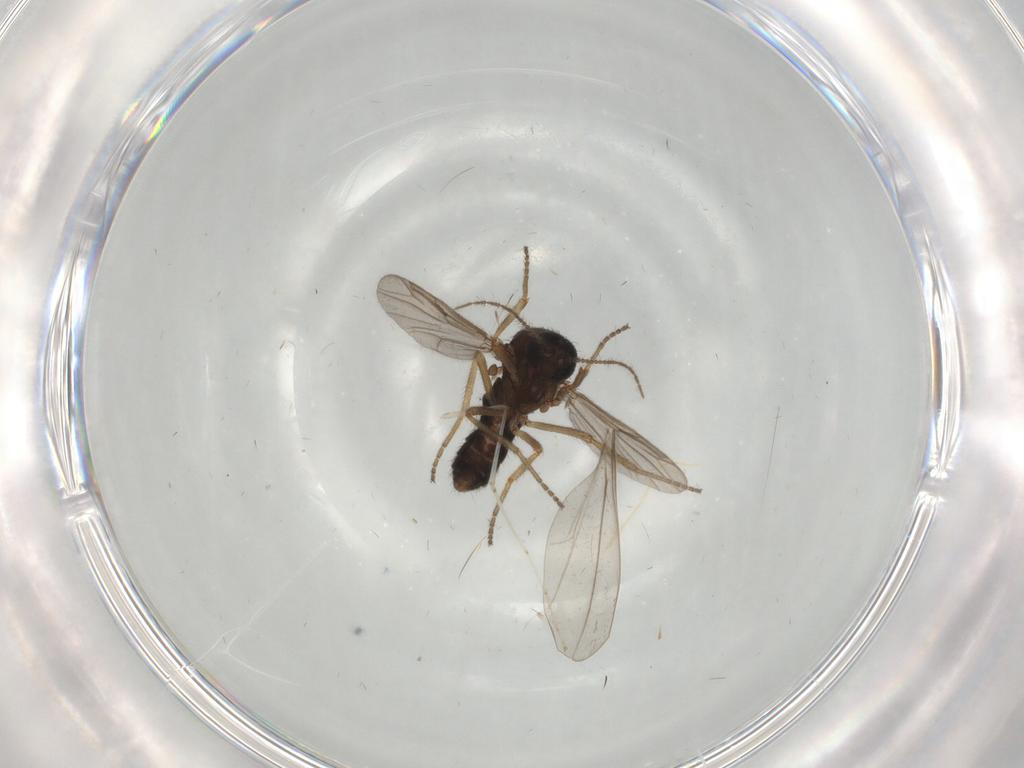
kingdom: Animalia
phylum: Arthropoda
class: Insecta
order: Diptera
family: Ceratopogonidae
